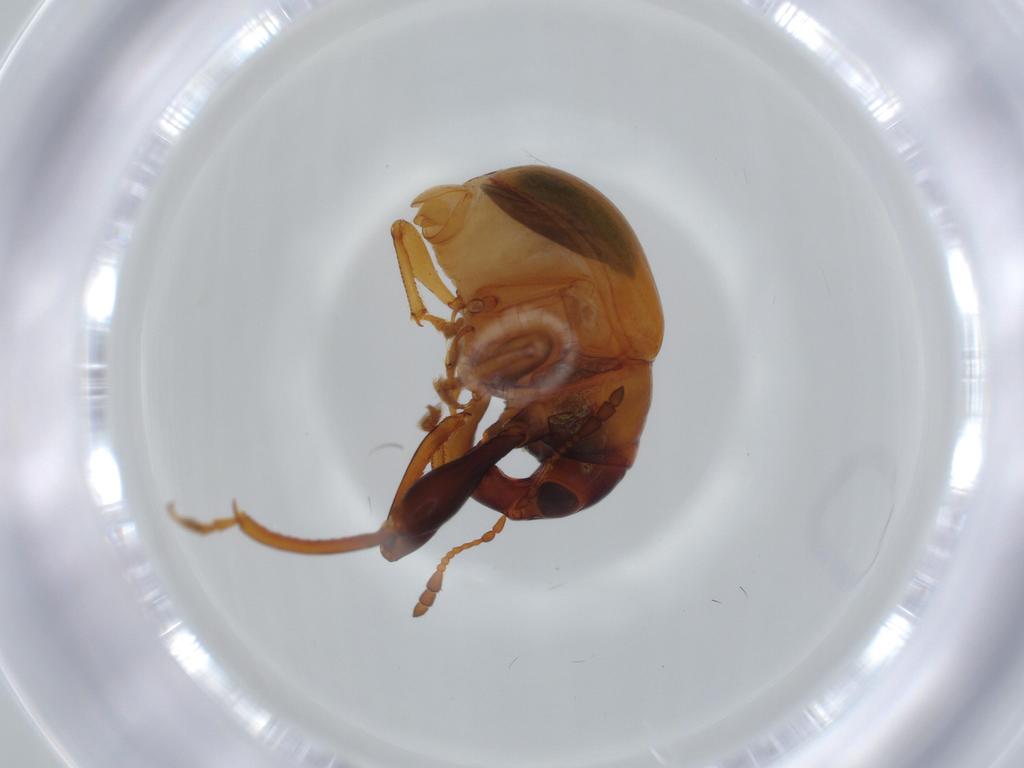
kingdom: Animalia
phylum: Arthropoda
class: Insecta
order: Coleoptera
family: Attelabidae
